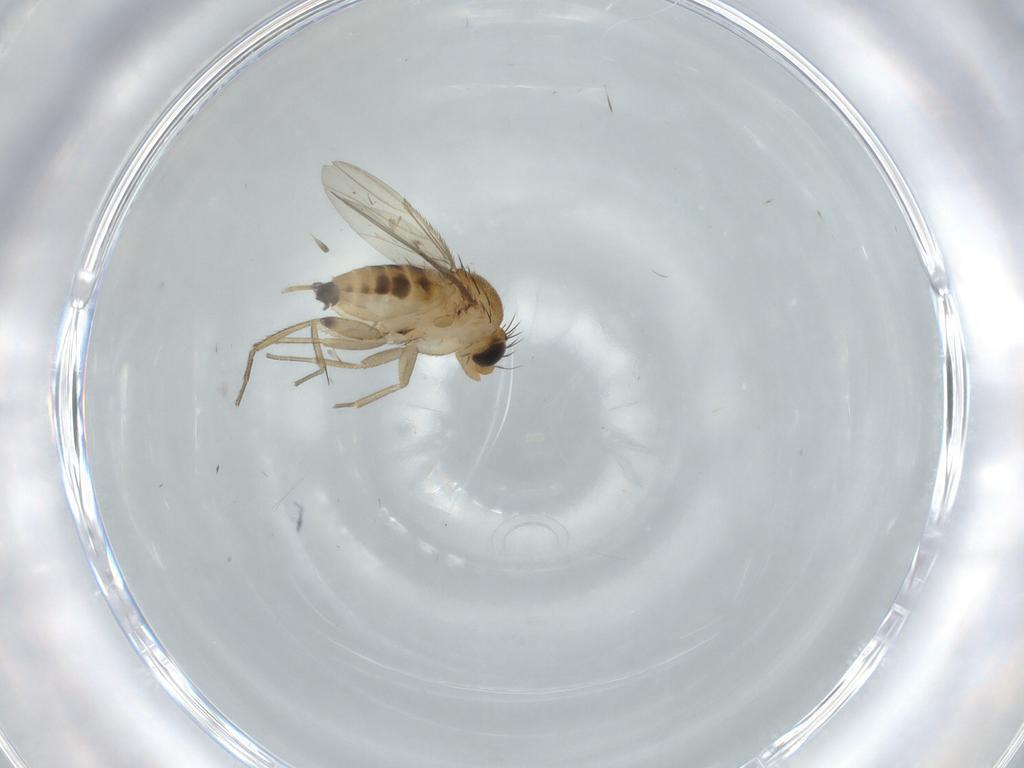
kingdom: Animalia
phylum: Arthropoda
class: Insecta
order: Diptera
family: Phoridae
